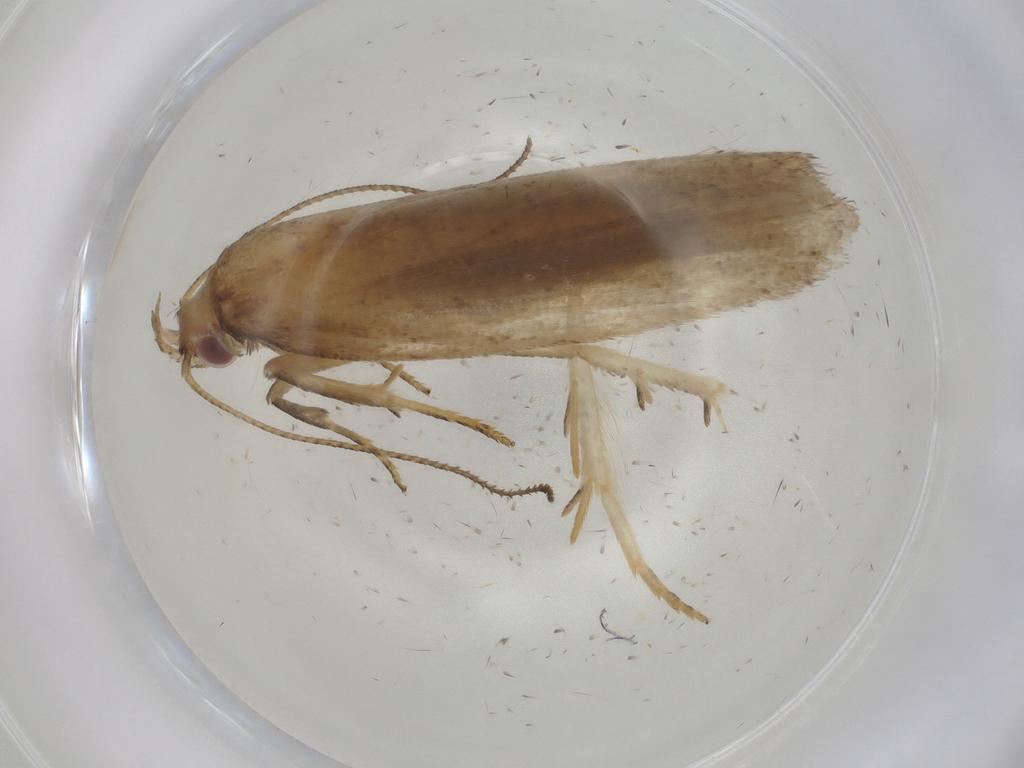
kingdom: Animalia
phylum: Arthropoda
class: Insecta
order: Lepidoptera
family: Cosmopterigidae
